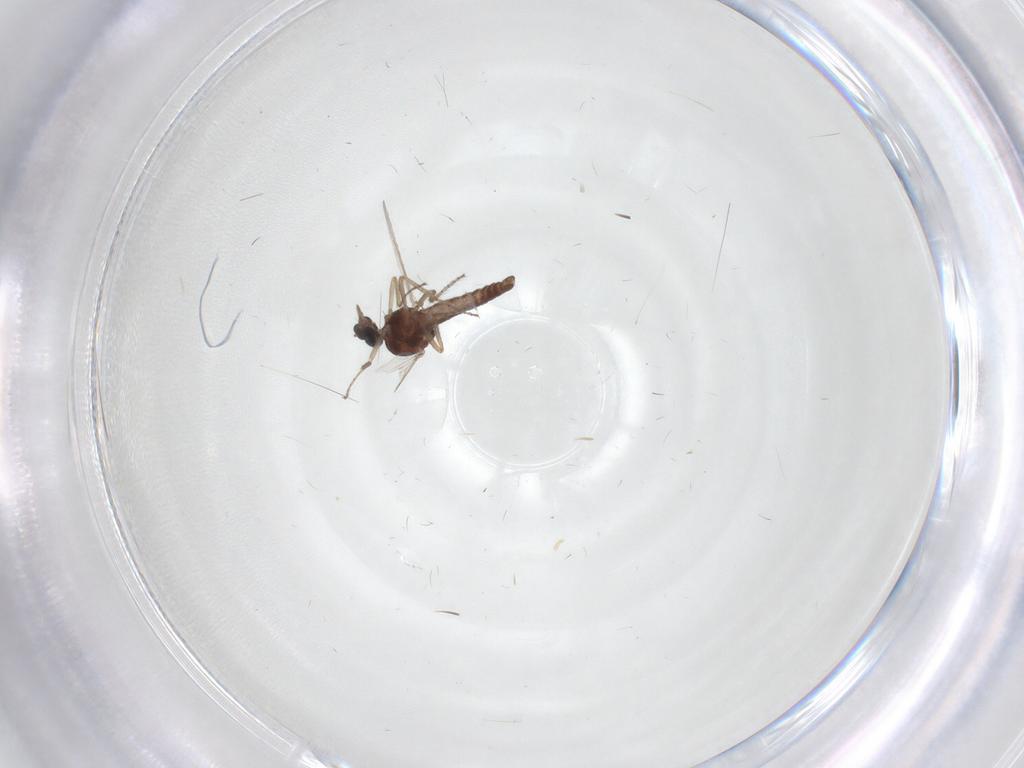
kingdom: Animalia
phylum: Arthropoda
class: Insecta
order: Diptera
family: Ceratopogonidae
